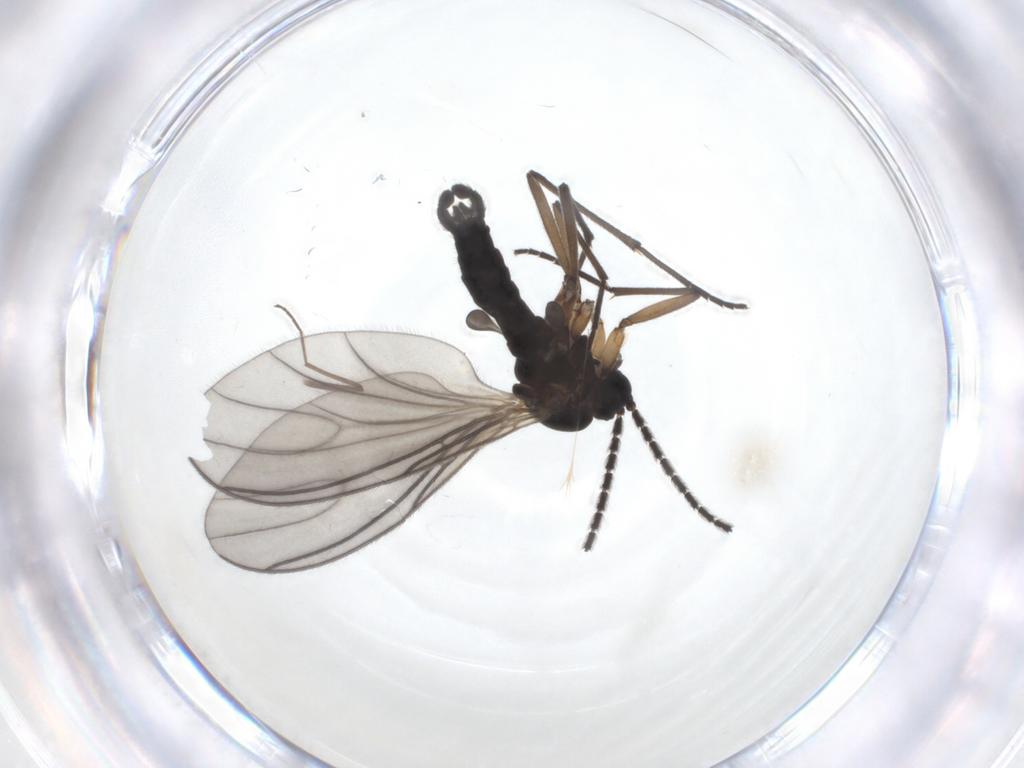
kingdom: Animalia
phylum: Arthropoda
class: Insecta
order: Diptera
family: Sciaridae
